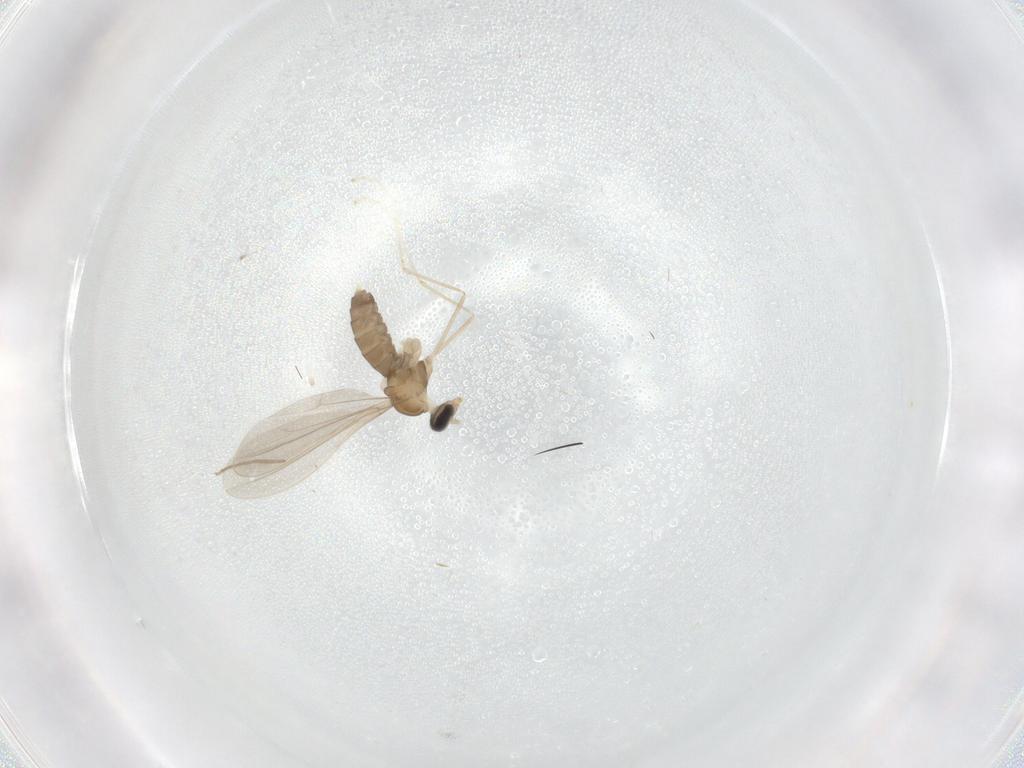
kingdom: Animalia
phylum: Arthropoda
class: Insecta
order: Diptera
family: Cecidomyiidae
